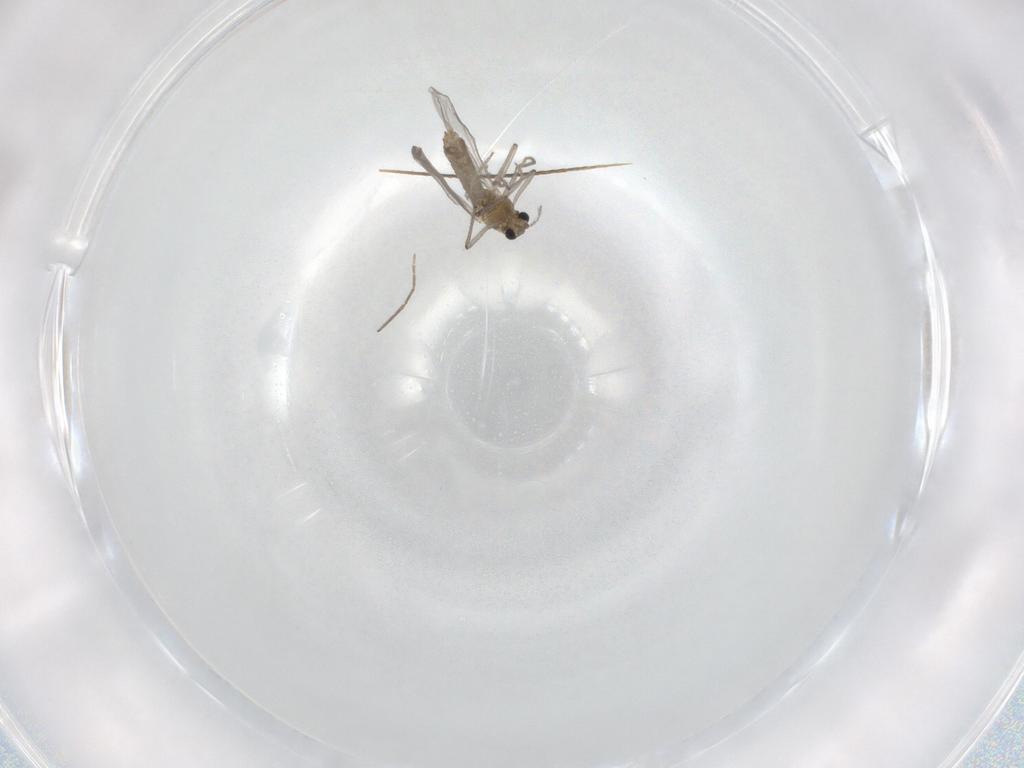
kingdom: Animalia
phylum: Arthropoda
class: Insecta
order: Diptera
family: Chironomidae
